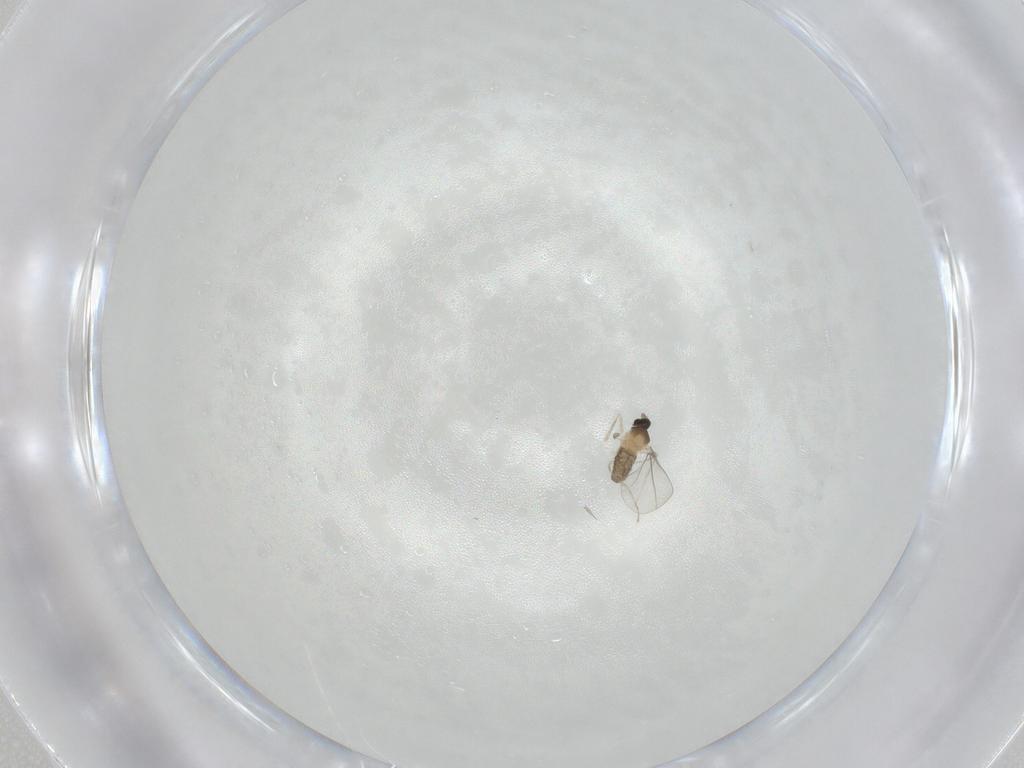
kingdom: Animalia
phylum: Arthropoda
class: Insecta
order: Diptera
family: Cecidomyiidae
